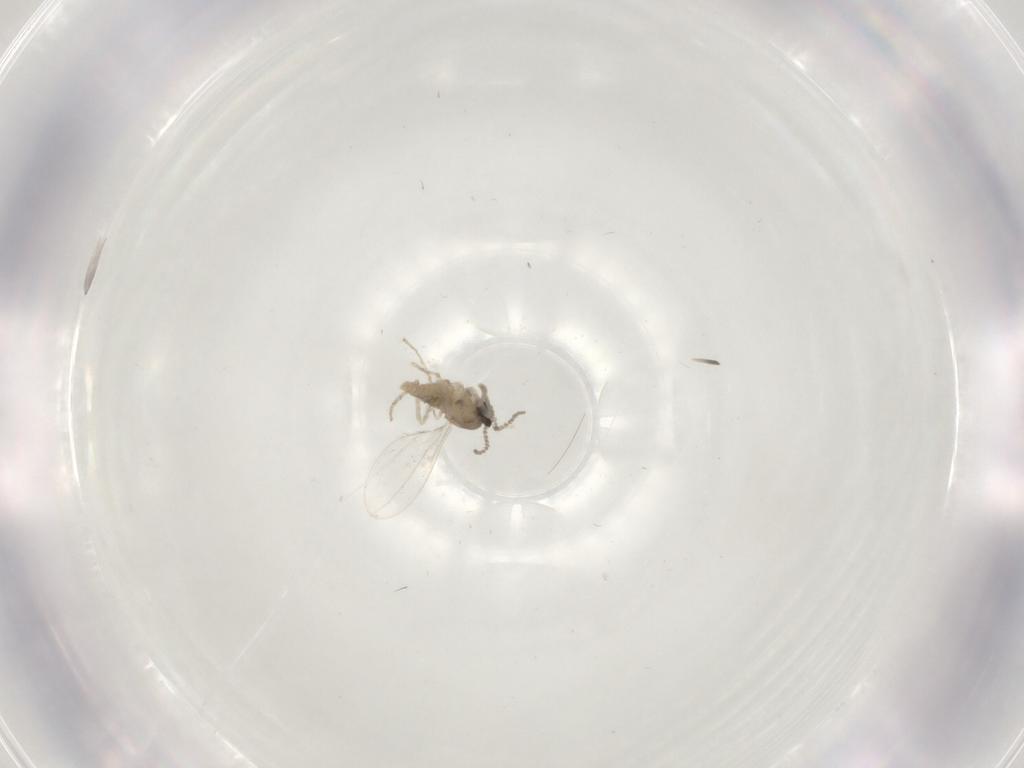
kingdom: Animalia
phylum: Arthropoda
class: Insecta
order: Diptera
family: Cecidomyiidae
